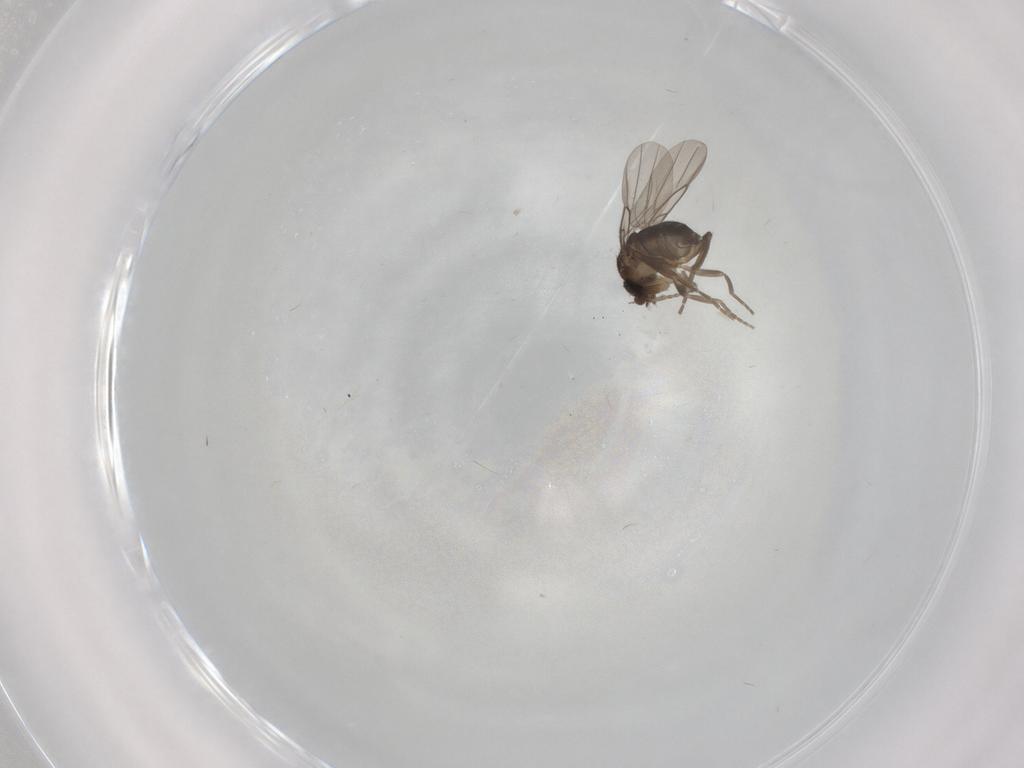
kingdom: Animalia
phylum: Arthropoda
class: Insecta
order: Diptera
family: Phoridae
